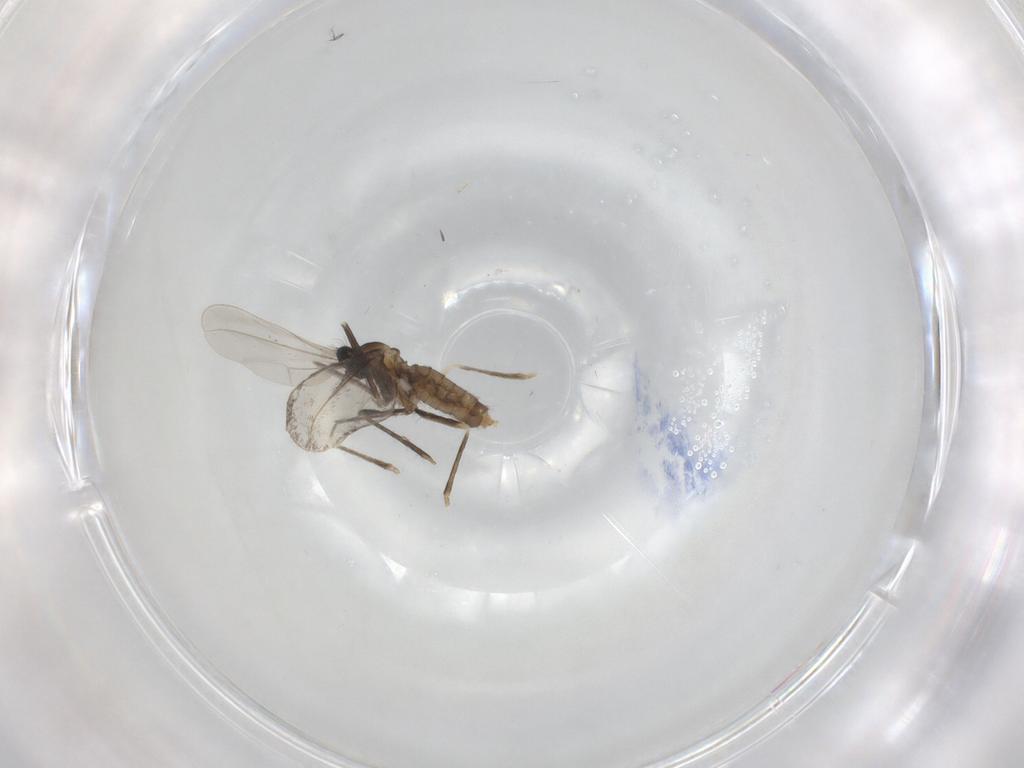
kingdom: Animalia
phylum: Arthropoda
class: Insecta
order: Diptera
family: Cecidomyiidae
